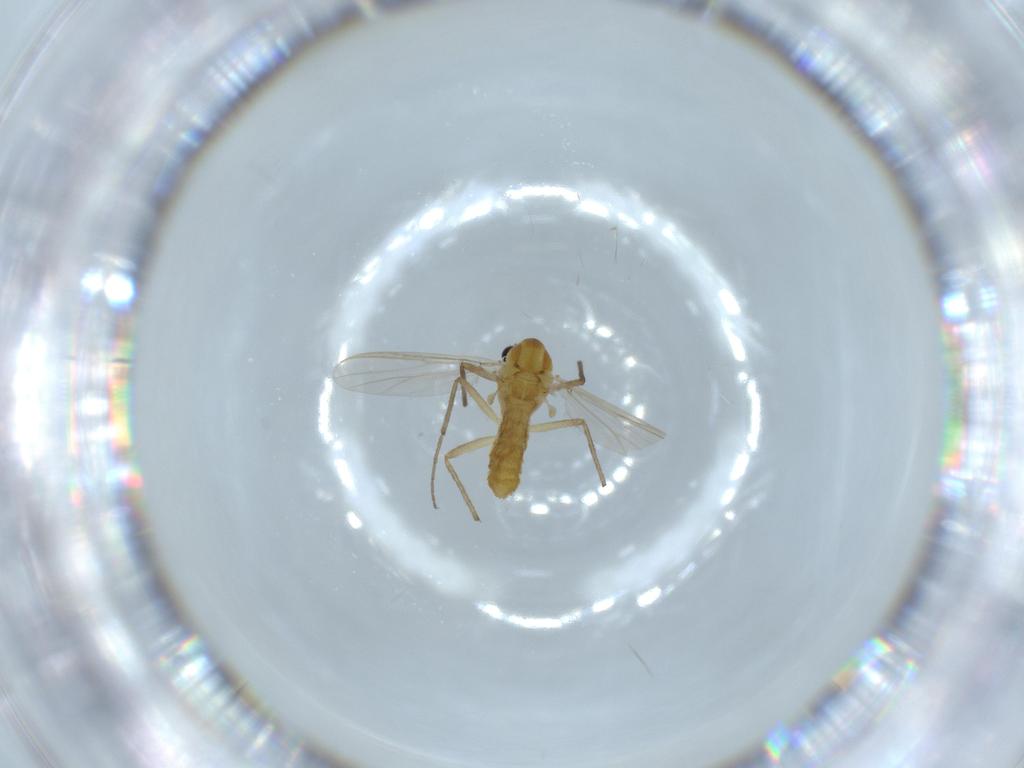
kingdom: Animalia
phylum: Arthropoda
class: Insecta
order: Diptera
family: Chironomidae
